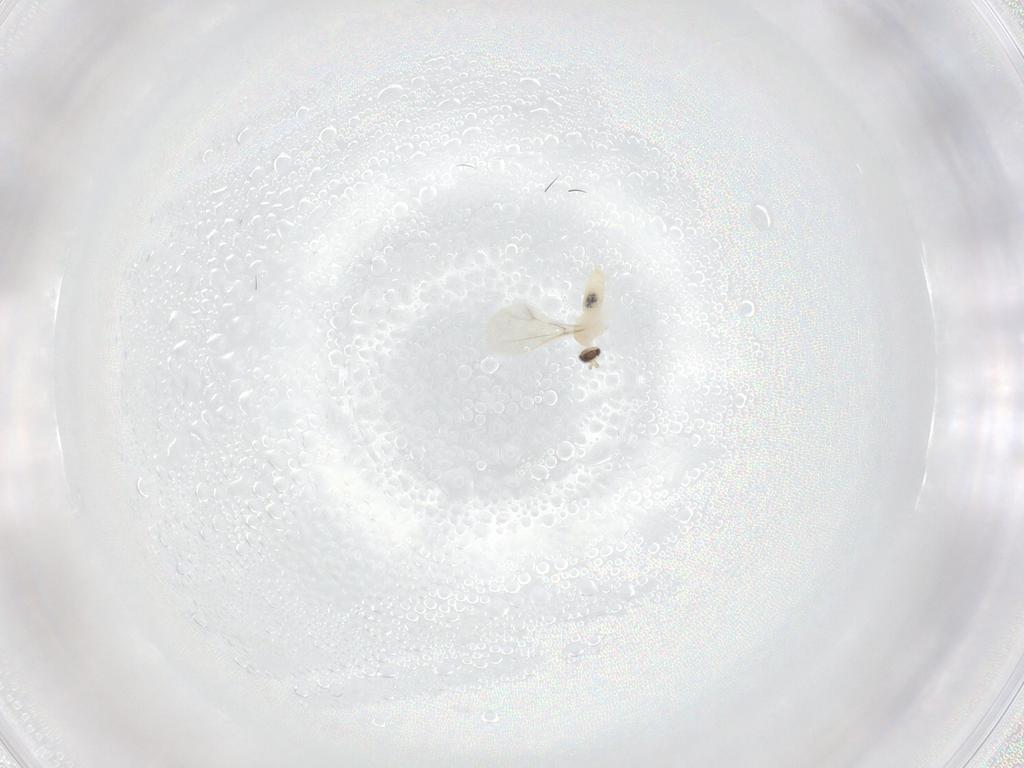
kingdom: Animalia
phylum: Arthropoda
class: Insecta
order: Diptera
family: Cecidomyiidae
